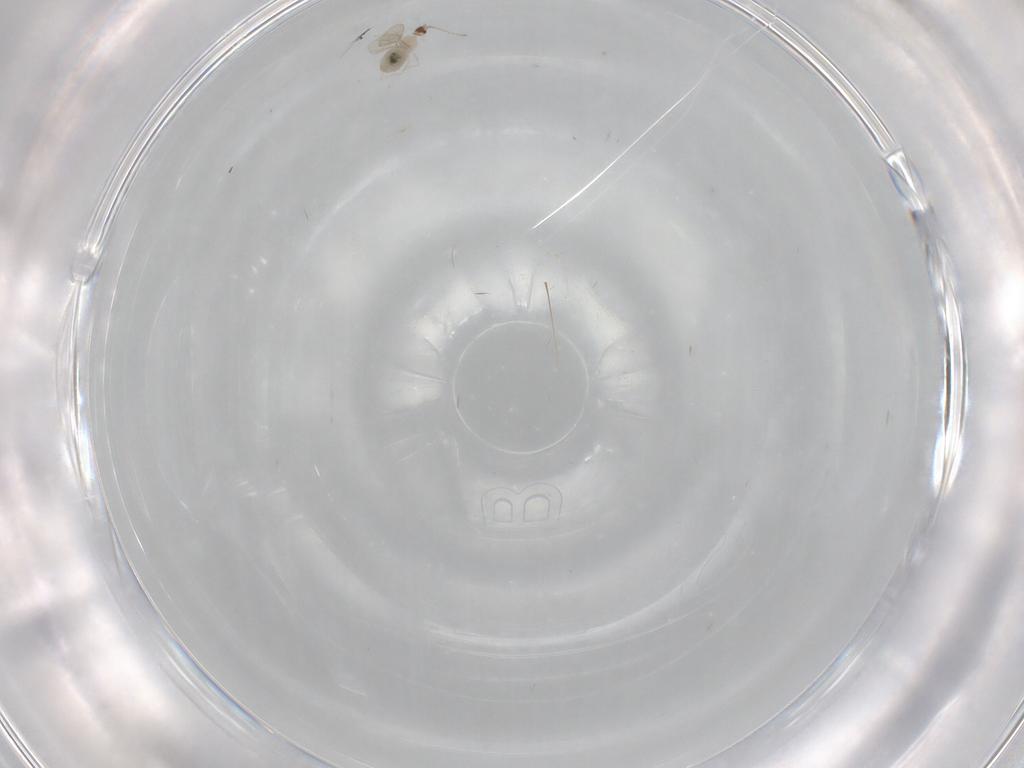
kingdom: Animalia
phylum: Arthropoda
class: Insecta
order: Diptera
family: Cecidomyiidae
